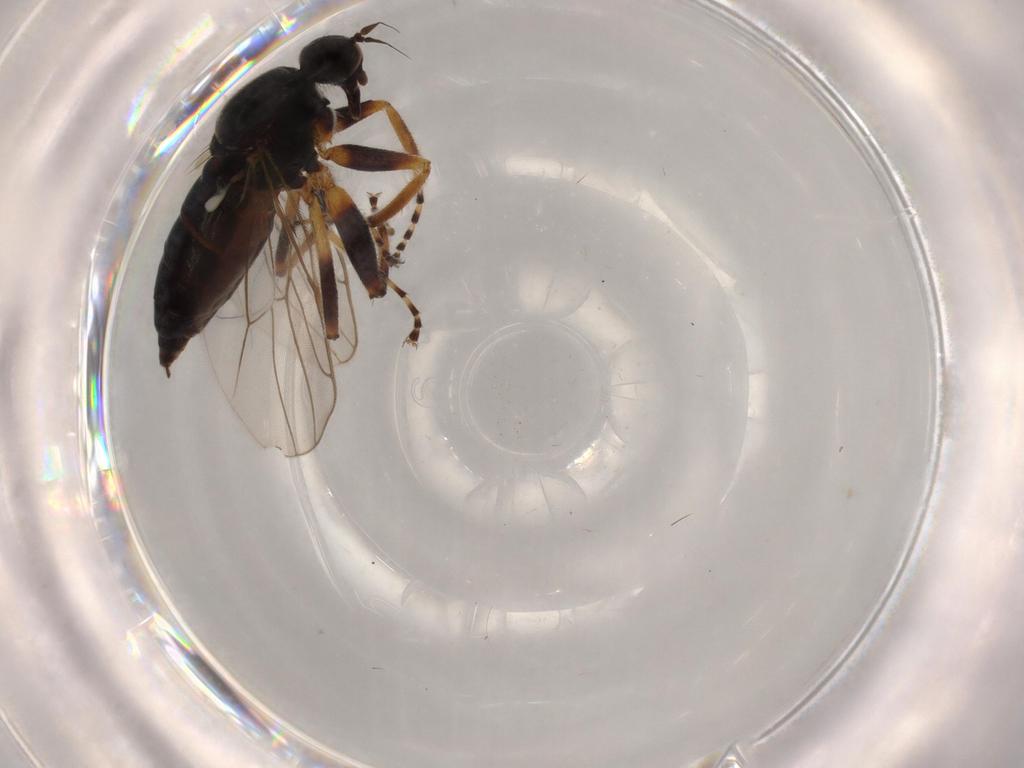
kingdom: Animalia
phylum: Arthropoda
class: Insecta
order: Diptera
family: Hybotidae
